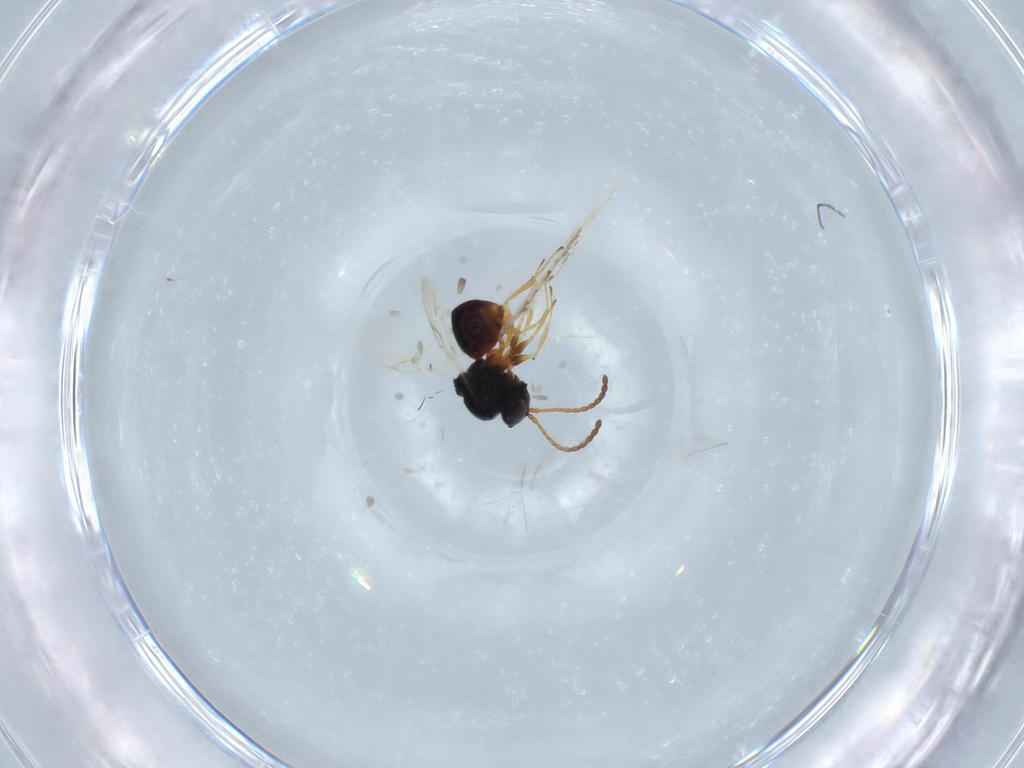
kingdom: Animalia
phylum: Arthropoda
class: Insecta
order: Hymenoptera
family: Figitidae
